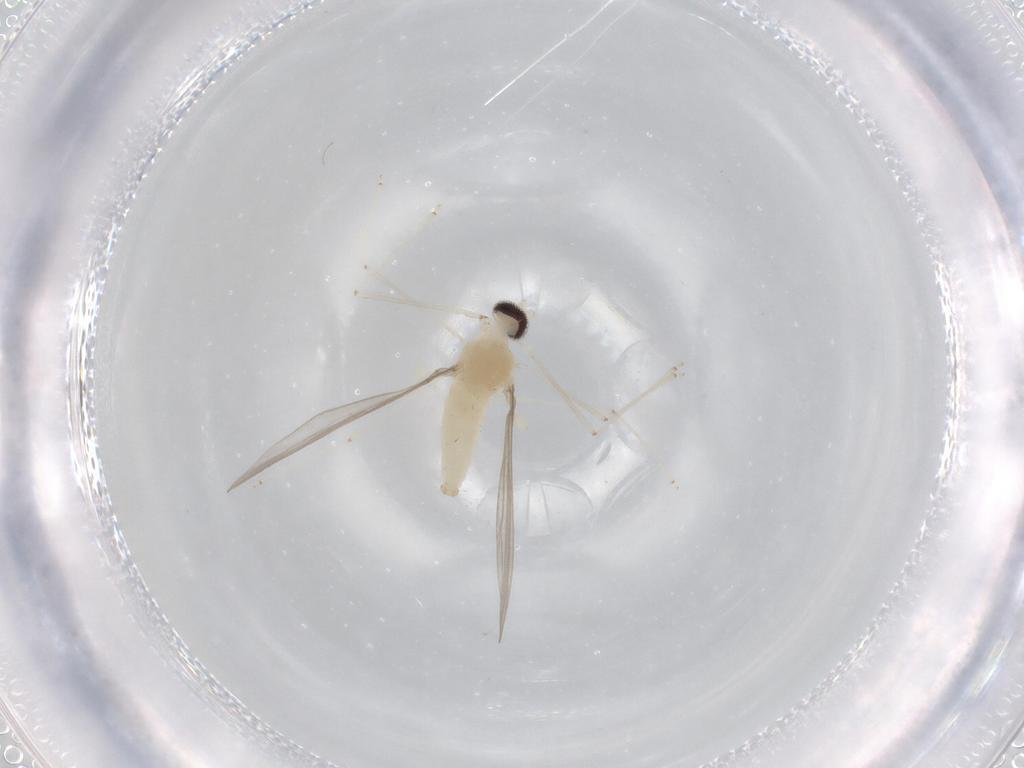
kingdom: Animalia
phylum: Arthropoda
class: Insecta
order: Diptera
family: Cecidomyiidae
